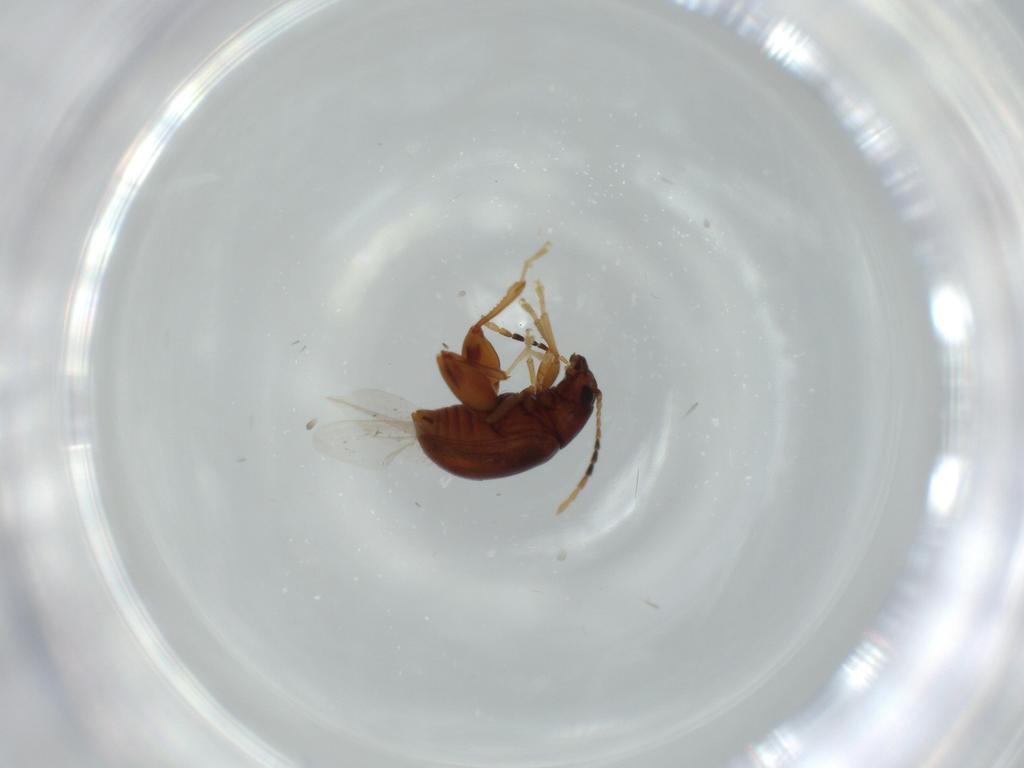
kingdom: Animalia
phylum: Arthropoda
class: Insecta
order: Coleoptera
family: Chrysomelidae
